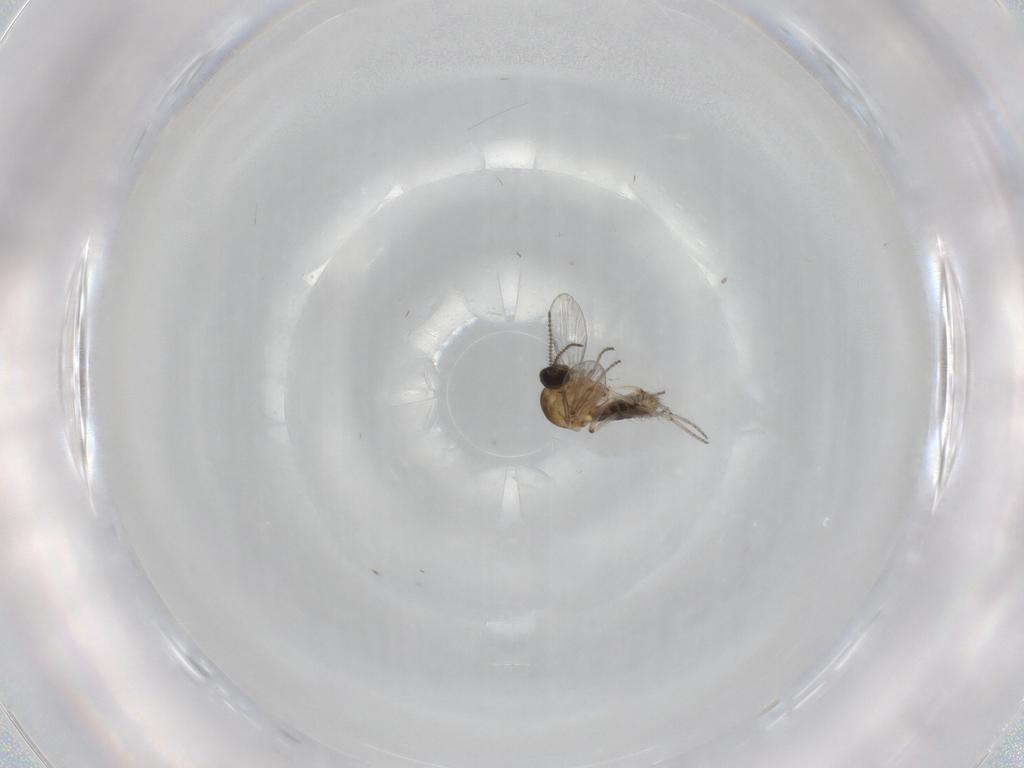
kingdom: Animalia
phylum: Arthropoda
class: Insecta
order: Diptera
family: Ceratopogonidae
